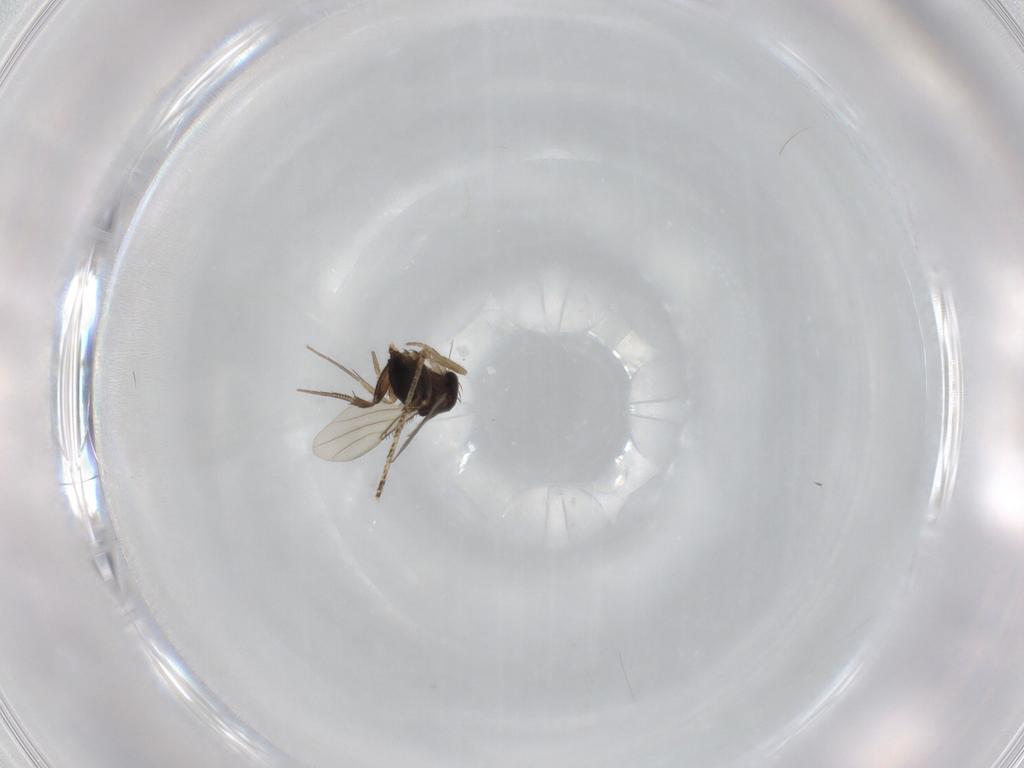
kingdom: Animalia
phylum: Arthropoda
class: Insecta
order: Diptera
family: Phoridae
